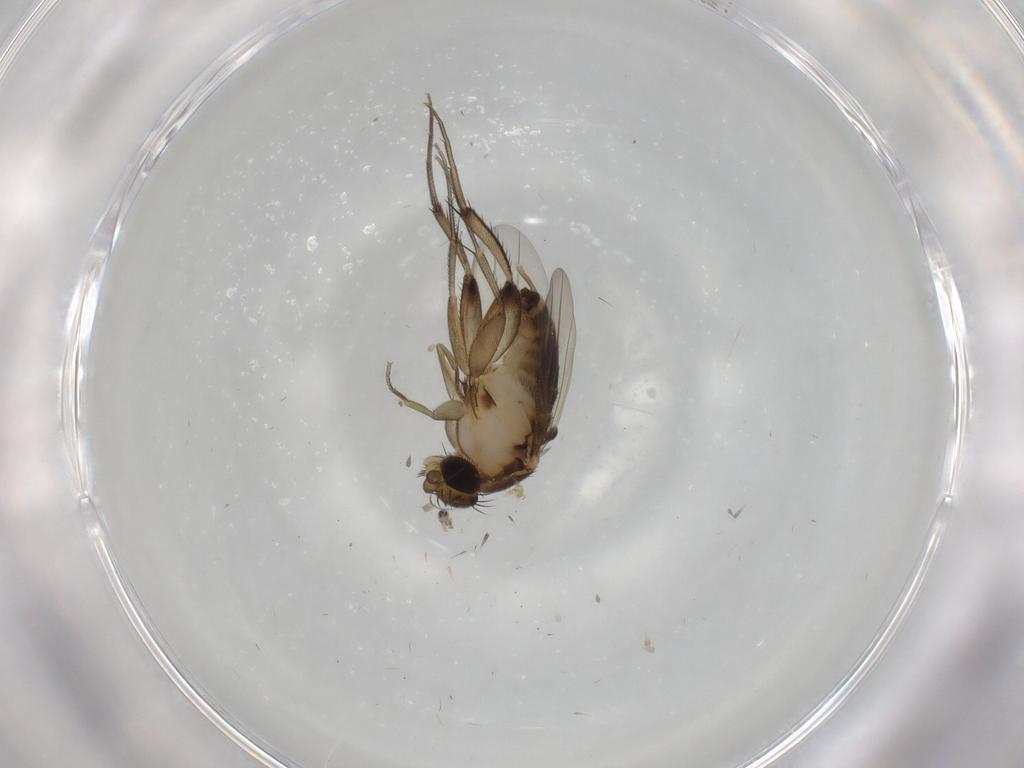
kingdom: Animalia
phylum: Arthropoda
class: Insecta
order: Diptera
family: Phoridae
